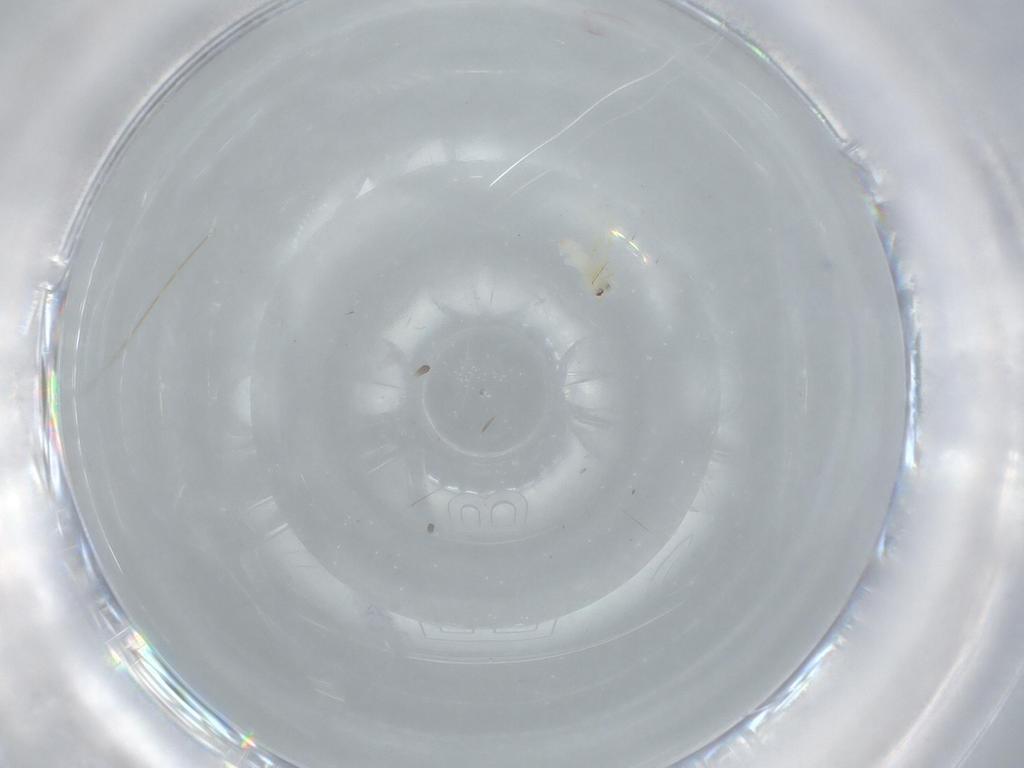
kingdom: Animalia
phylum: Arthropoda
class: Insecta
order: Hemiptera
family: Aleyrodidae
